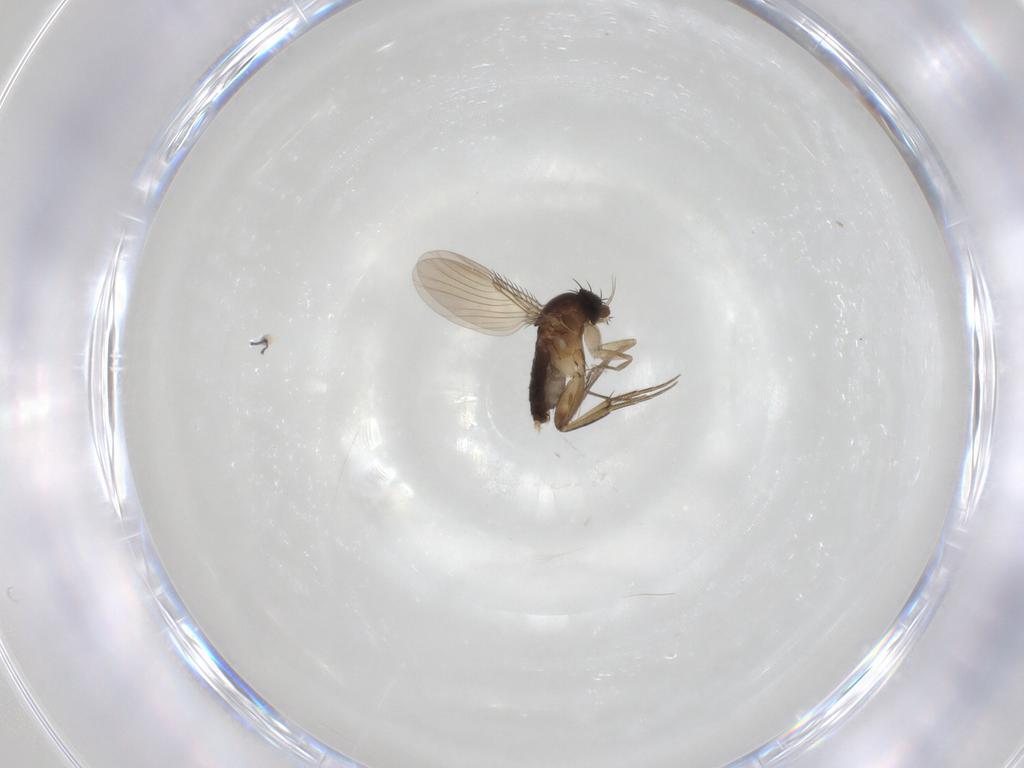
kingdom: Animalia
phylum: Arthropoda
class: Insecta
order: Diptera
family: Phoridae
